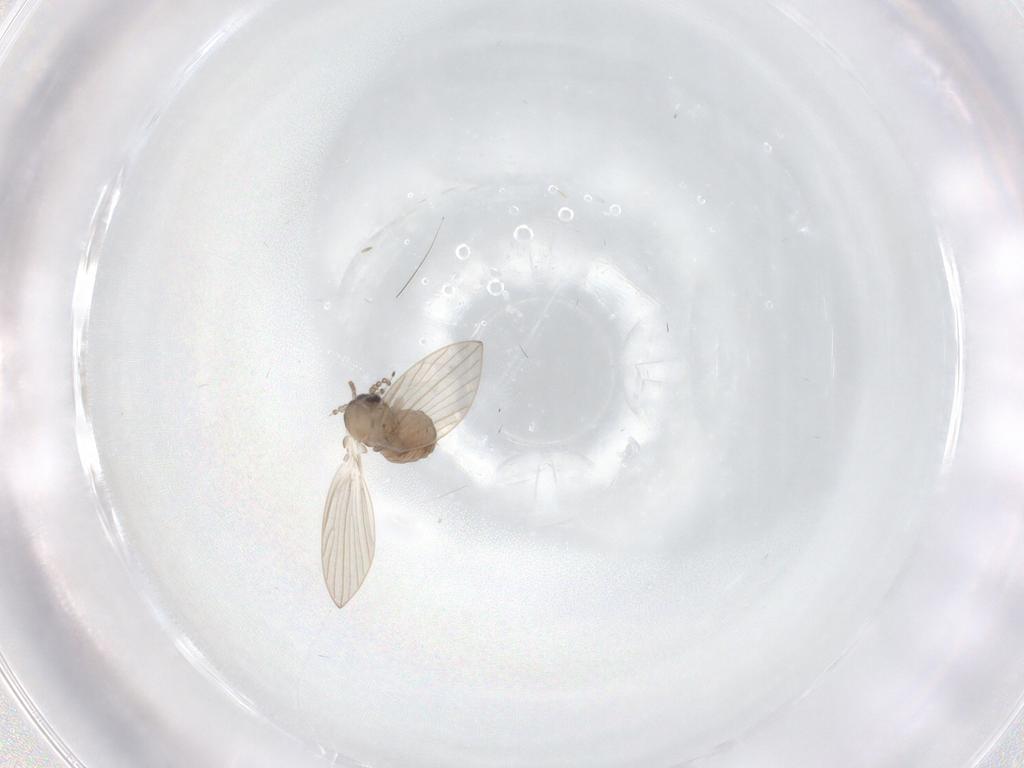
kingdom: Animalia
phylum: Arthropoda
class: Insecta
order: Diptera
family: Psychodidae
